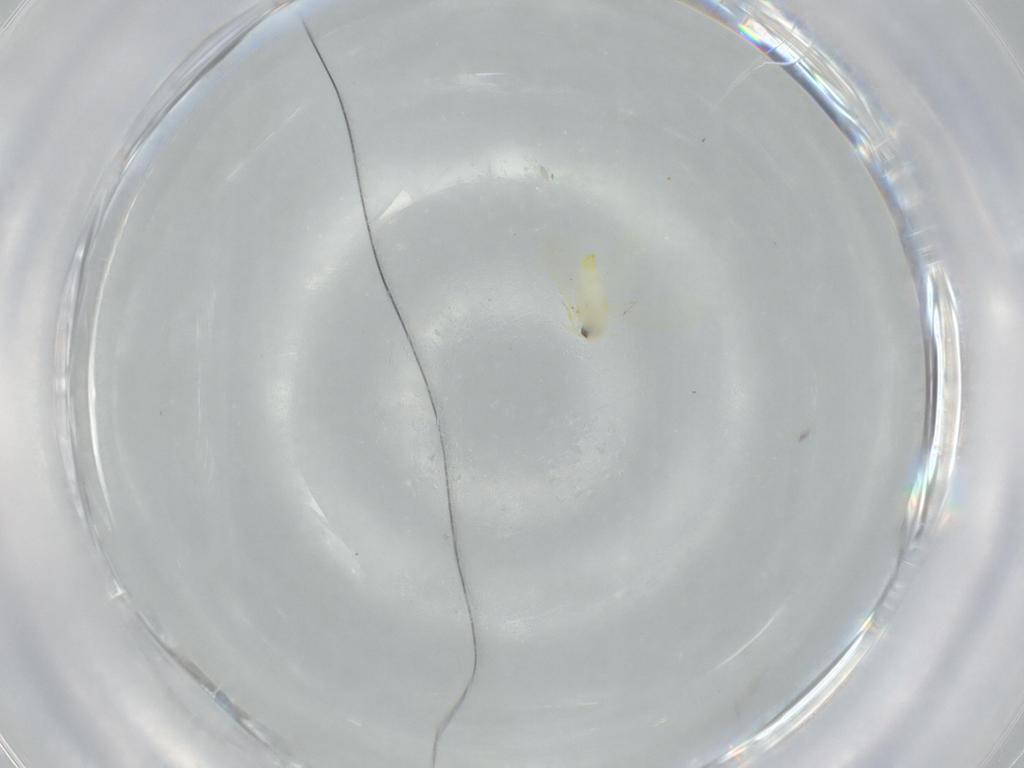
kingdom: Animalia
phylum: Arthropoda
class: Insecta
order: Hemiptera
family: Aleyrodidae
